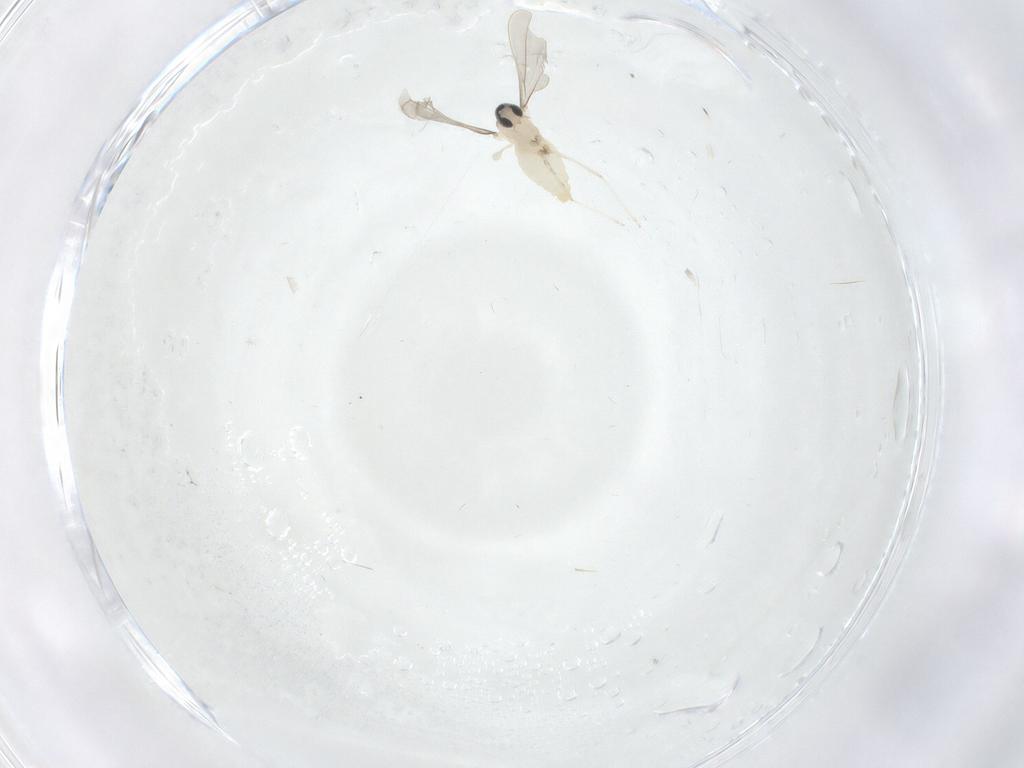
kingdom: Animalia
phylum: Arthropoda
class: Insecta
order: Diptera
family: Cecidomyiidae
